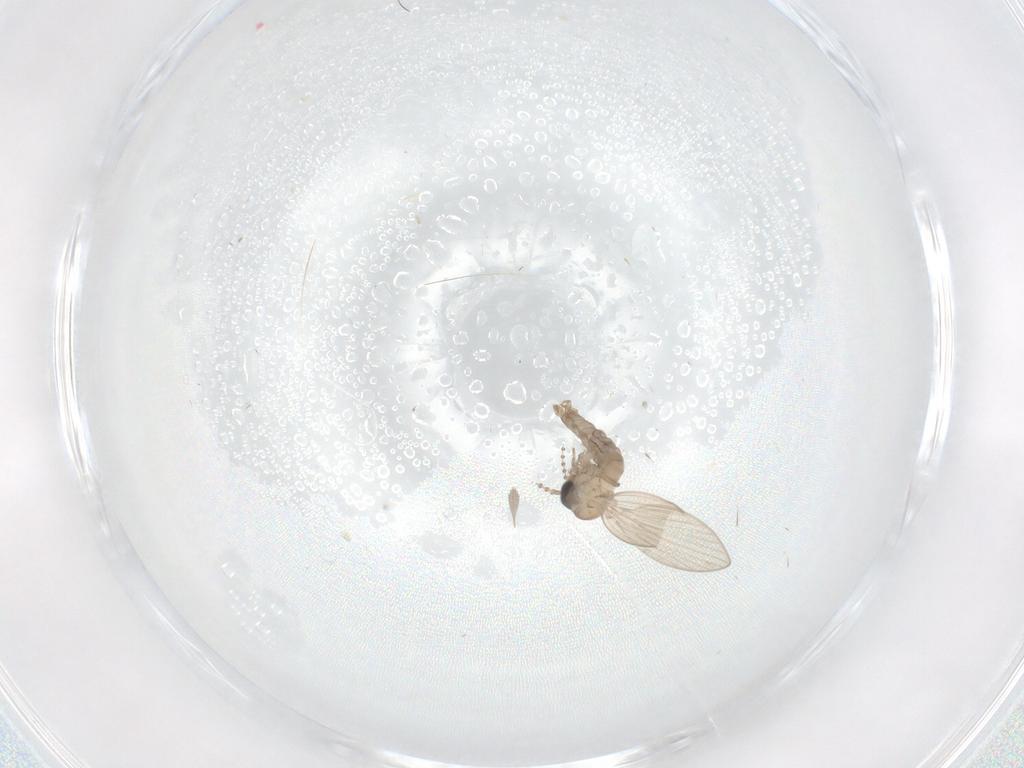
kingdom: Animalia
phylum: Arthropoda
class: Insecta
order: Diptera
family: Psychodidae
